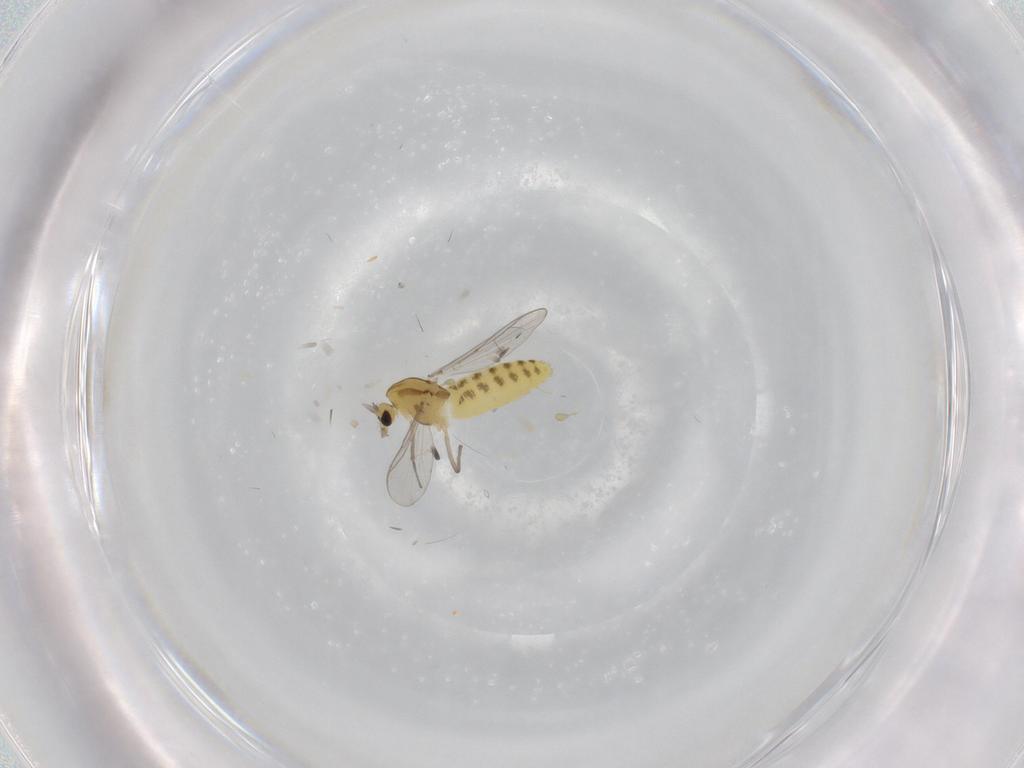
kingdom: Animalia
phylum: Arthropoda
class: Insecta
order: Diptera
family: Chironomidae
